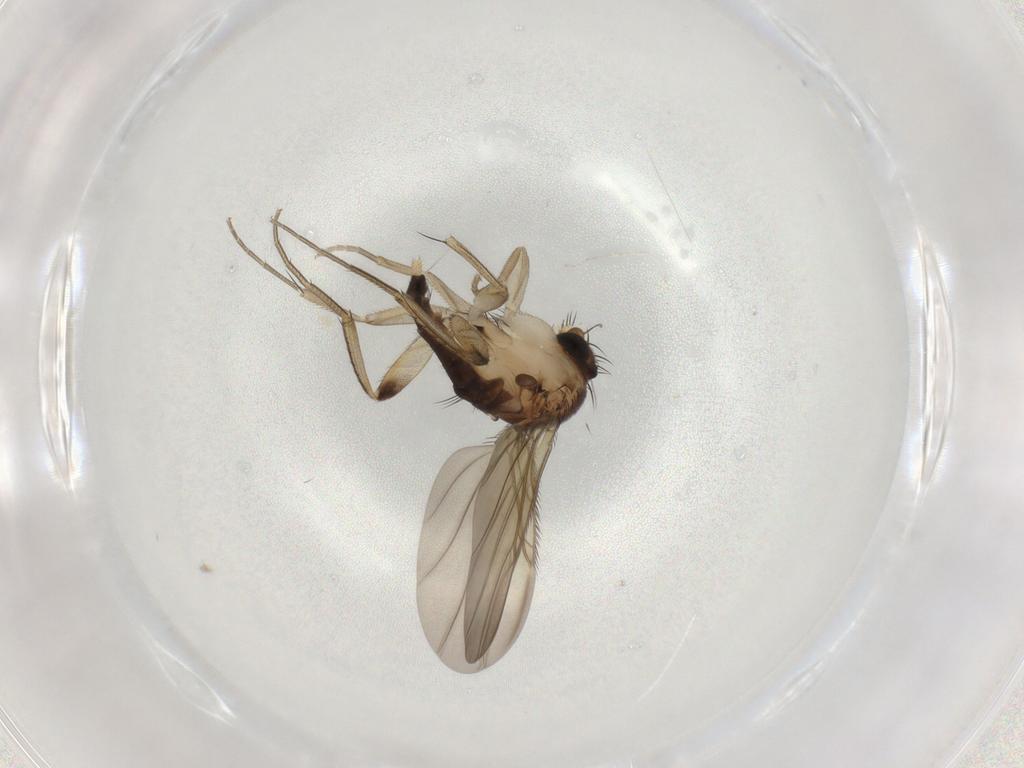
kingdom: Animalia
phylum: Arthropoda
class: Insecta
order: Diptera
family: Phoridae
